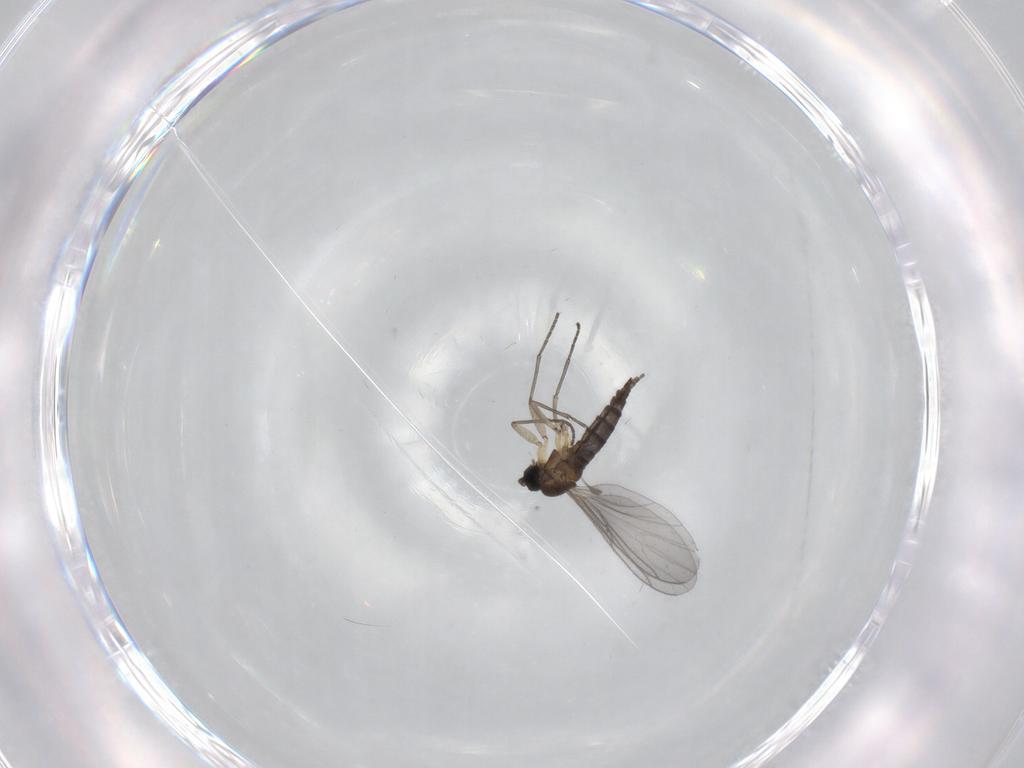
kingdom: Animalia
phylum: Arthropoda
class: Insecta
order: Diptera
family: Sciaridae
